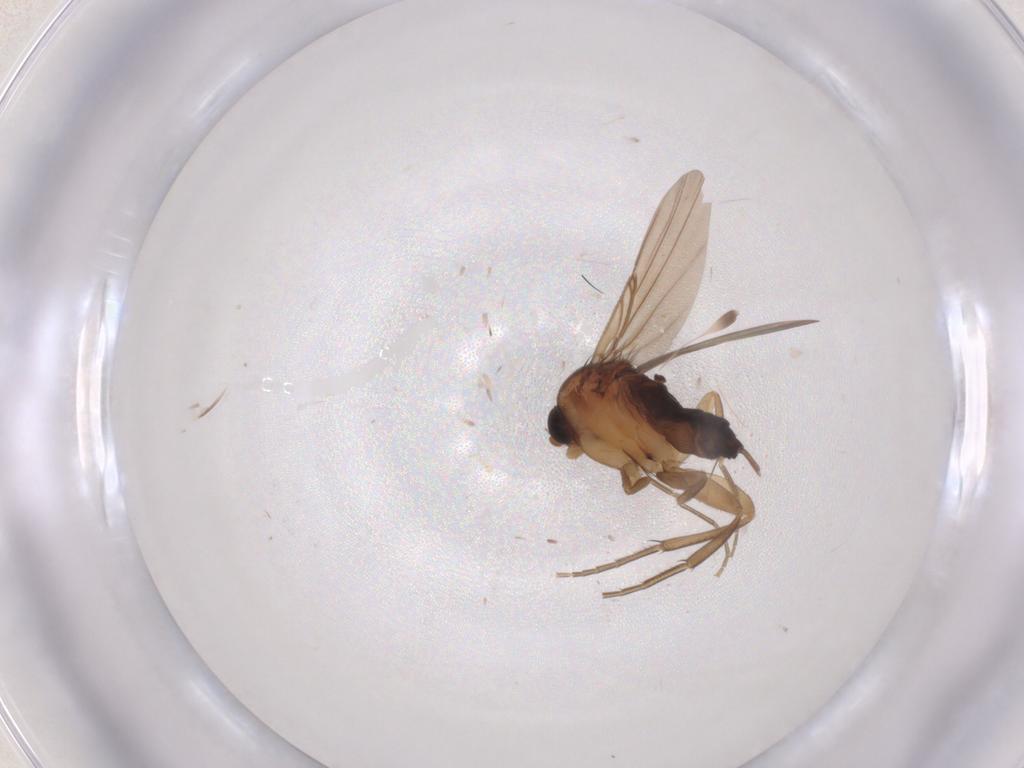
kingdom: Animalia
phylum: Arthropoda
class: Insecta
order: Diptera
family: Phoridae
